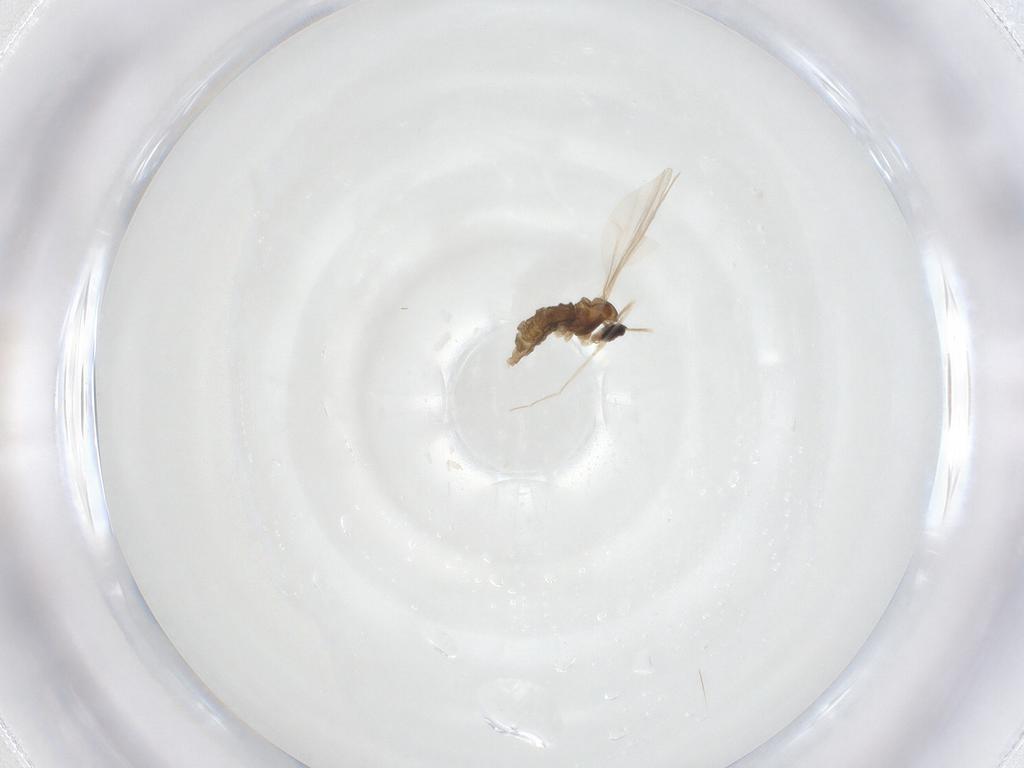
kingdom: Animalia
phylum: Arthropoda
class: Insecta
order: Diptera
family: Cecidomyiidae
